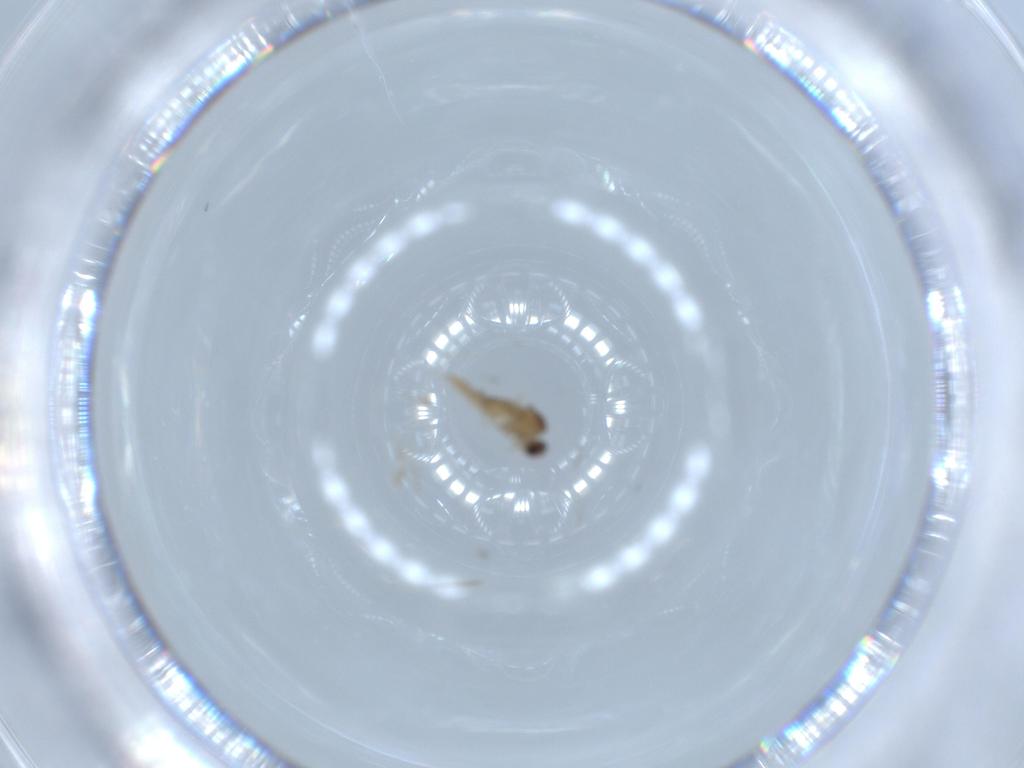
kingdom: Animalia
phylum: Arthropoda
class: Insecta
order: Diptera
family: Cecidomyiidae
